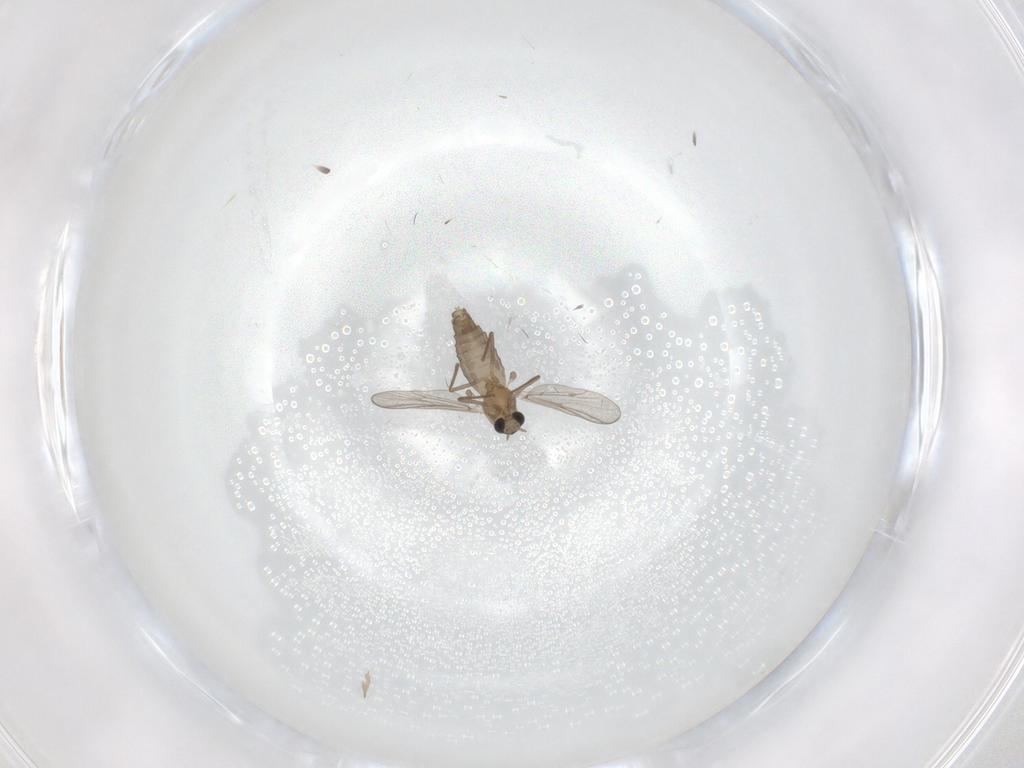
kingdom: Animalia
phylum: Arthropoda
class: Insecta
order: Diptera
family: Chironomidae
